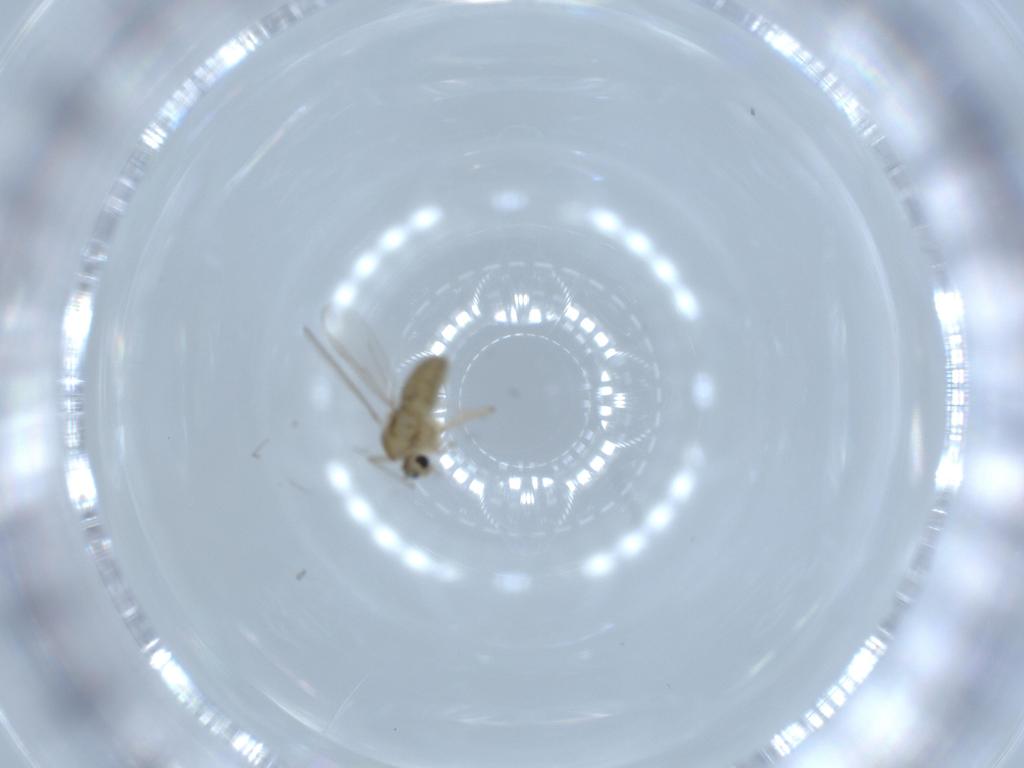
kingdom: Animalia
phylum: Arthropoda
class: Insecta
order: Diptera
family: Chironomidae
